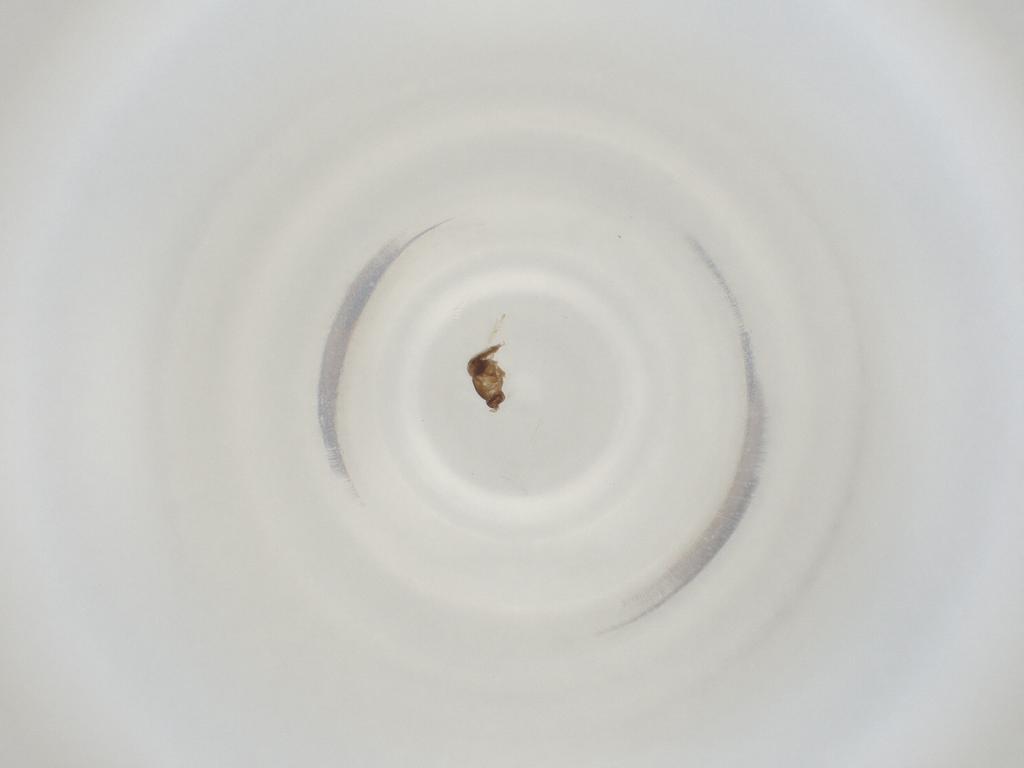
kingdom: Animalia
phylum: Arthropoda
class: Insecta
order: Diptera
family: Cecidomyiidae
